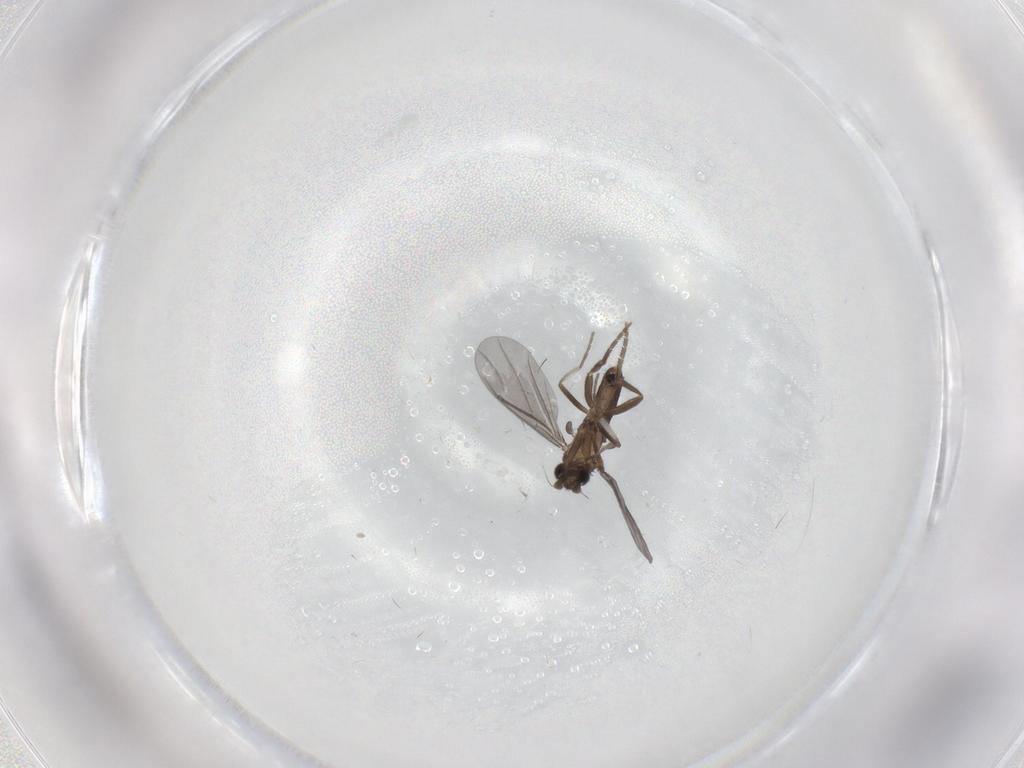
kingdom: Animalia
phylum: Arthropoda
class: Insecta
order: Diptera
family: Phoridae
